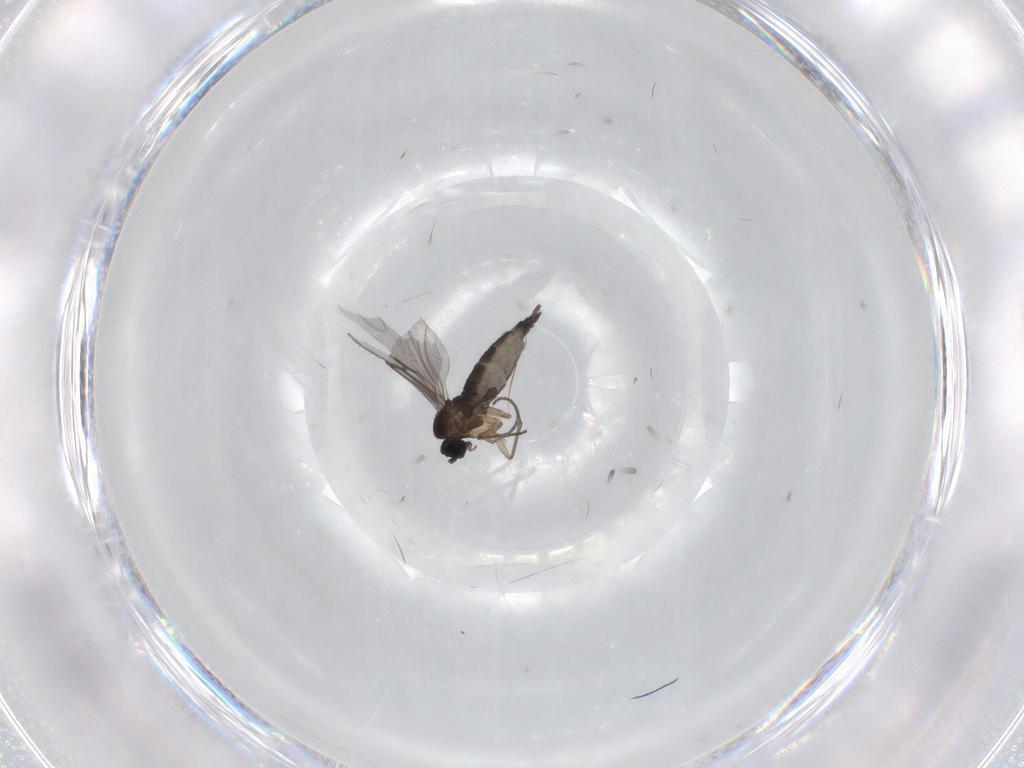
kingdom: Animalia
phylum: Arthropoda
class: Insecta
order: Diptera
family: Sciaridae
